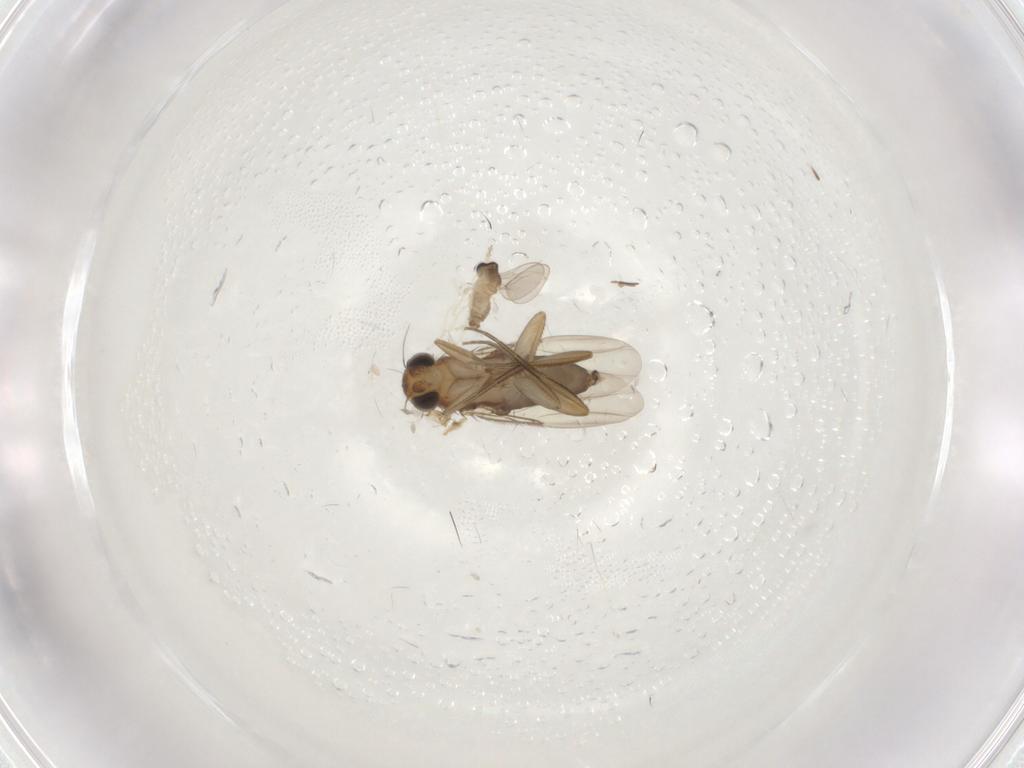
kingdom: Animalia
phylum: Arthropoda
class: Insecta
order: Diptera
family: Phoridae
